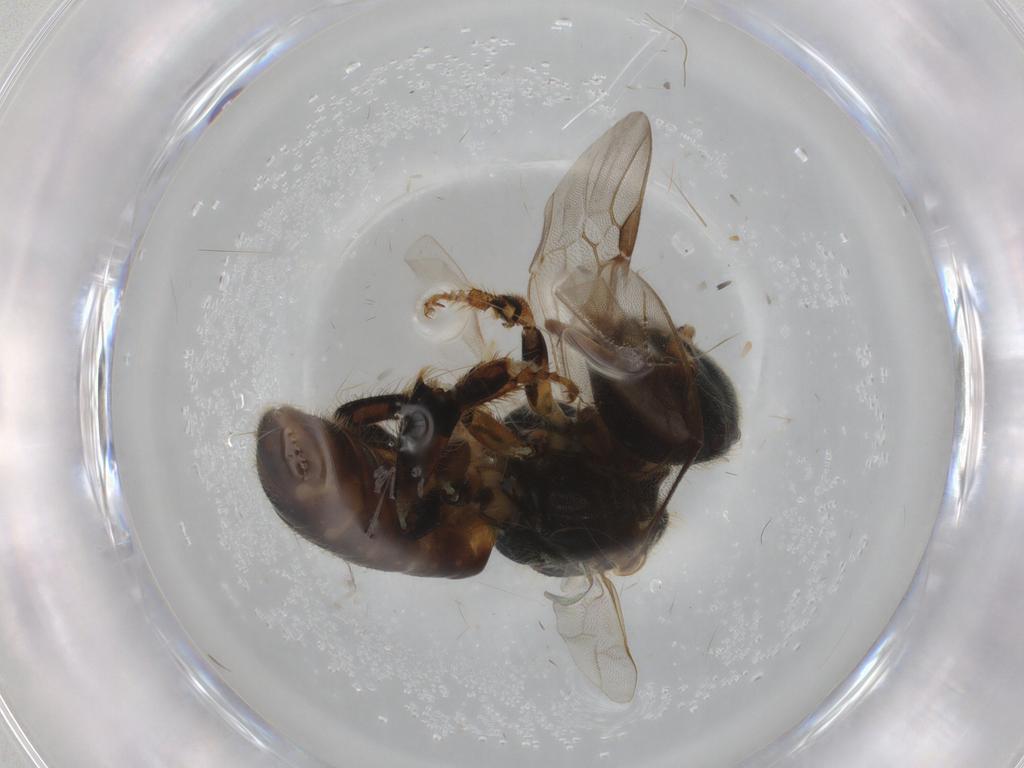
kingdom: Animalia
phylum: Arthropoda
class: Insecta
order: Hymenoptera
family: Apidae
